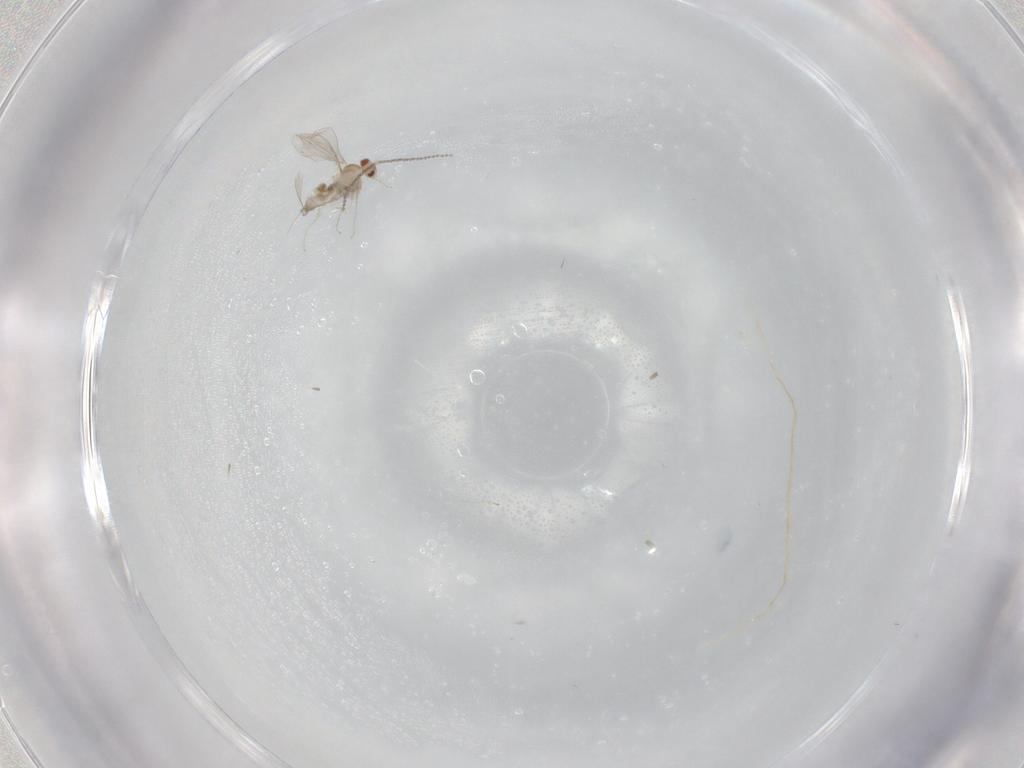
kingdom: Animalia
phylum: Arthropoda
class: Insecta
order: Diptera
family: Cecidomyiidae
